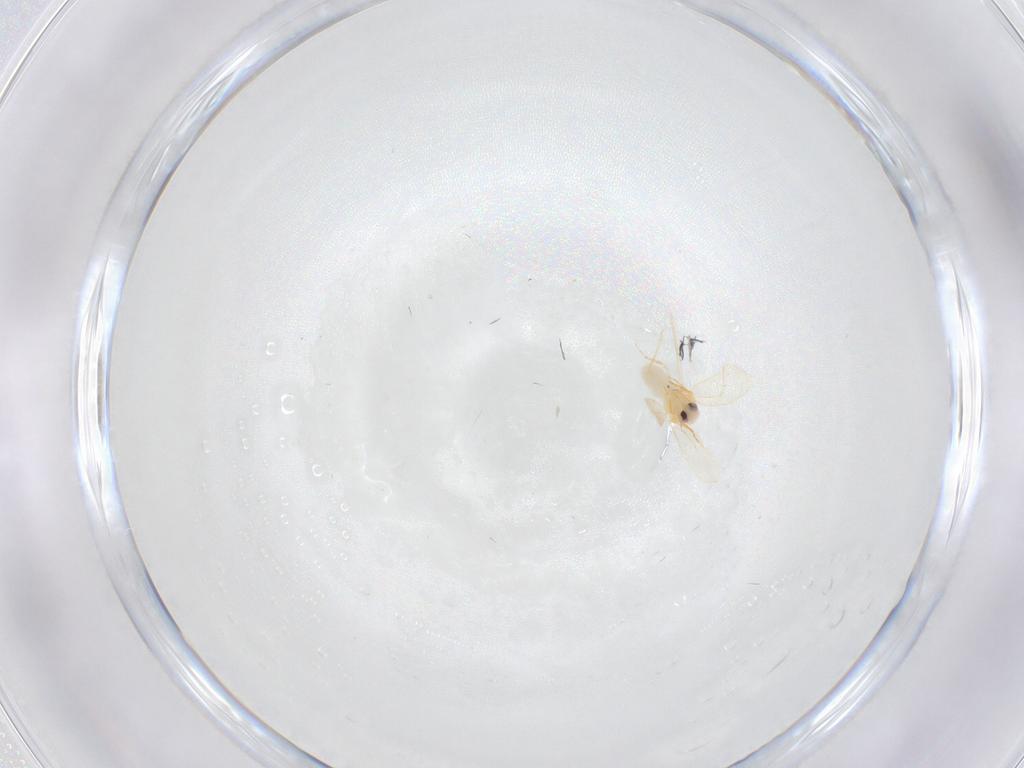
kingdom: Animalia
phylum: Arthropoda
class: Insecta
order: Hemiptera
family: Aleyrodidae
